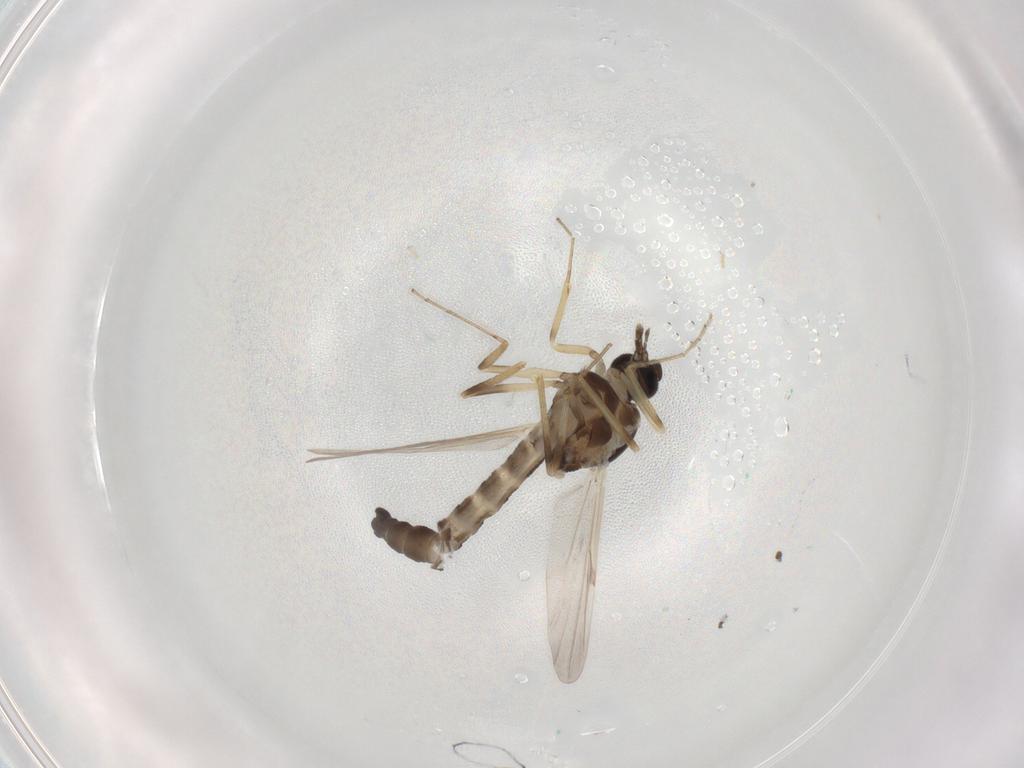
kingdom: Animalia
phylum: Arthropoda
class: Insecta
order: Diptera
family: Ceratopogonidae
